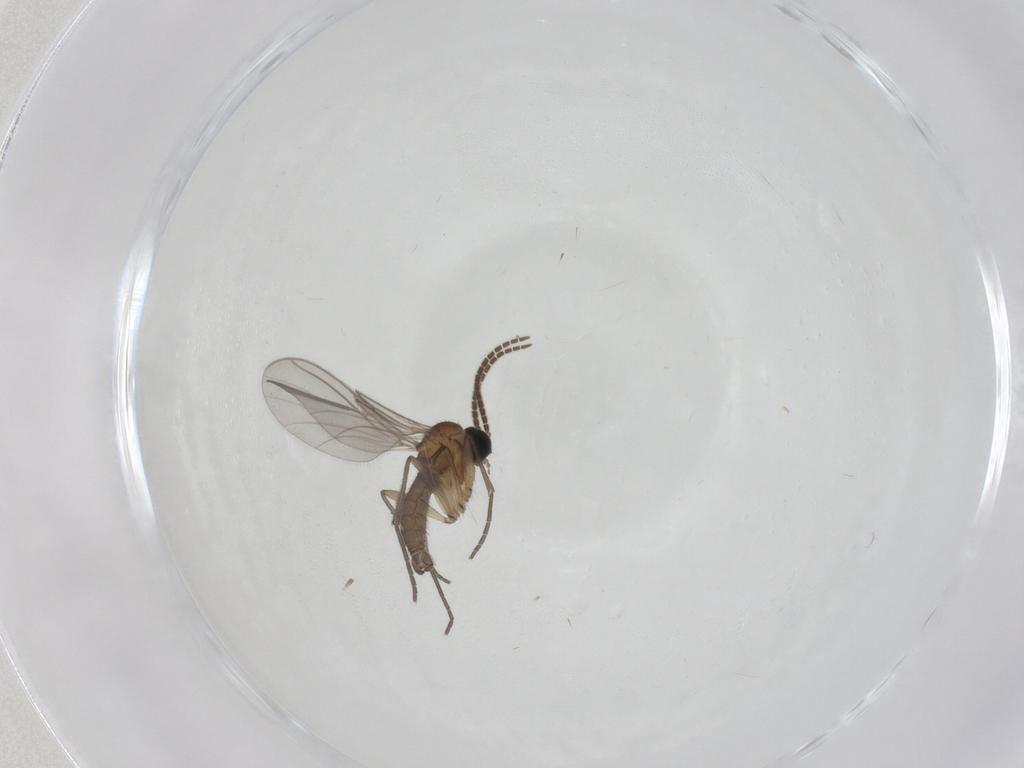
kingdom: Animalia
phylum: Arthropoda
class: Insecta
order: Diptera
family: Sciaridae
